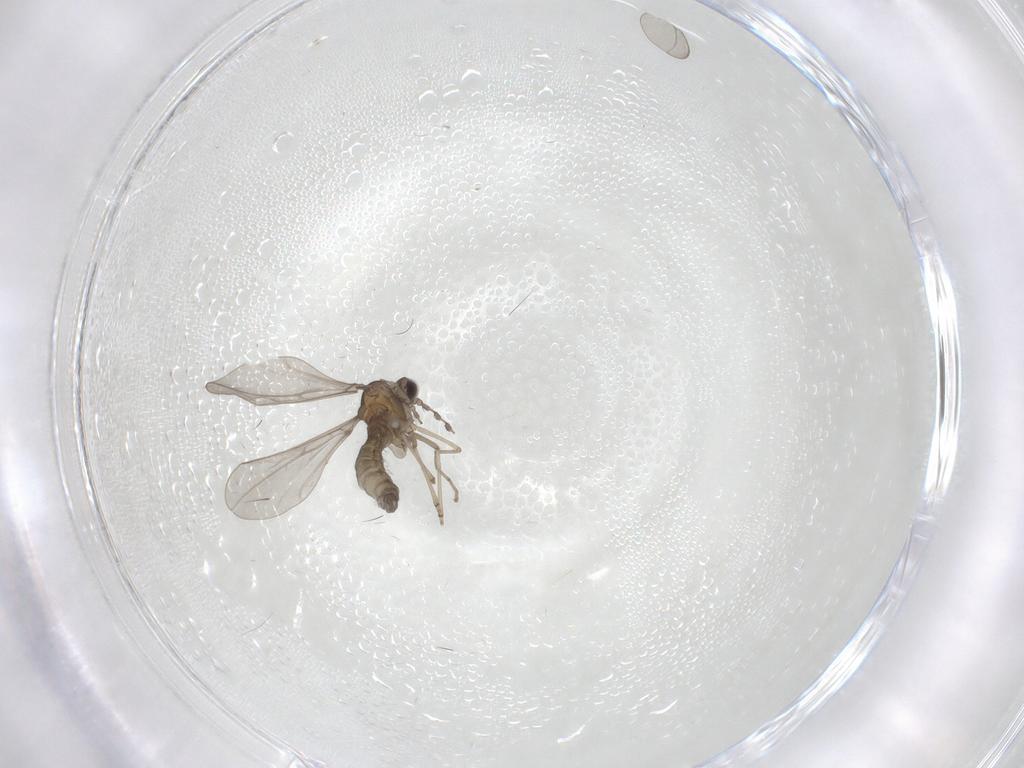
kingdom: Animalia
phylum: Arthropoda
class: Insecta
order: Diptera
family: Cecidomyiidae
